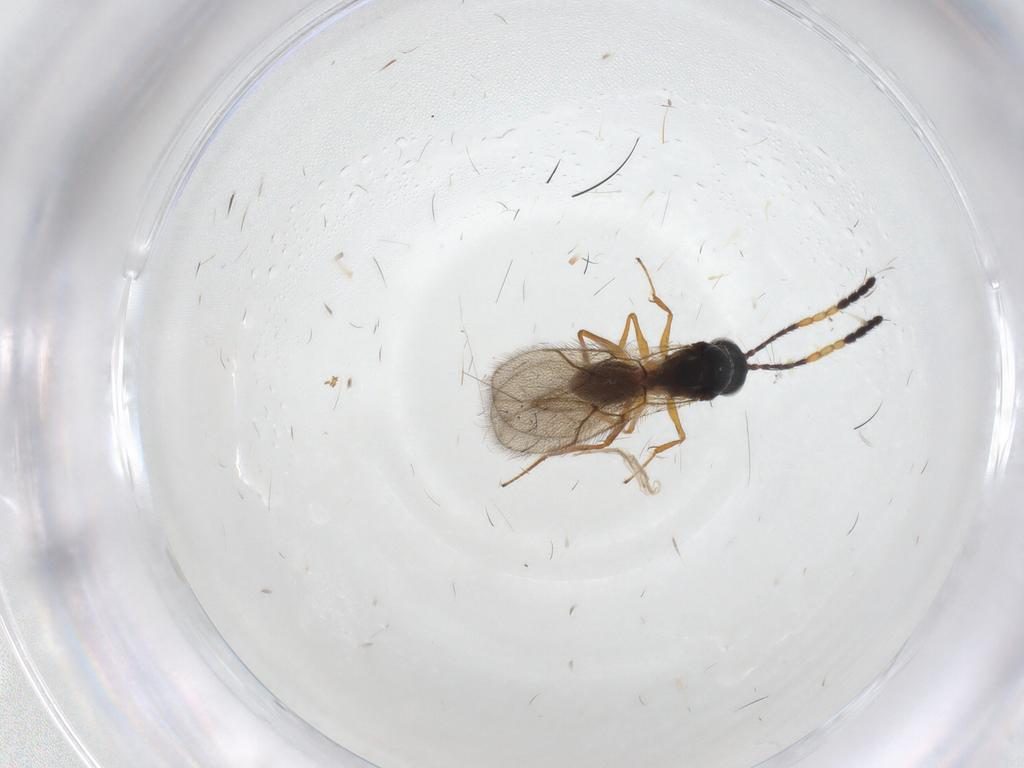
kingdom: Animalia
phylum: Arthropoda
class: Insecta
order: Hymenoptera
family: Figitidae
